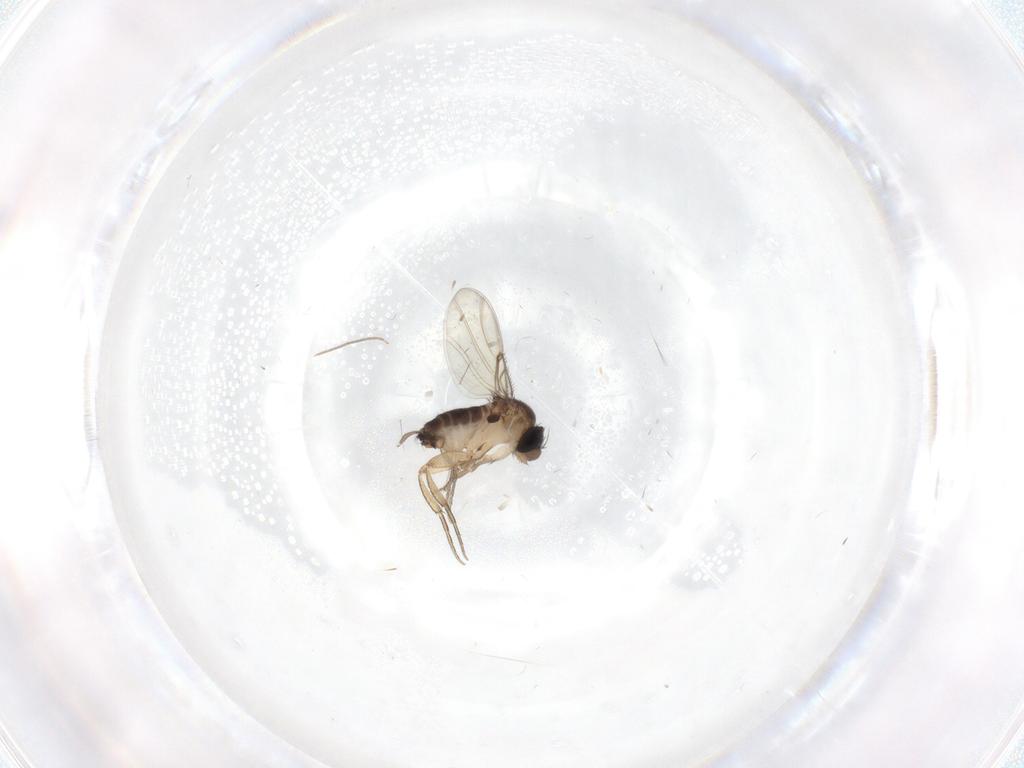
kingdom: Animalia
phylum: Arthropoda
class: Insecta
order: Diptera
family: Chironomidae
